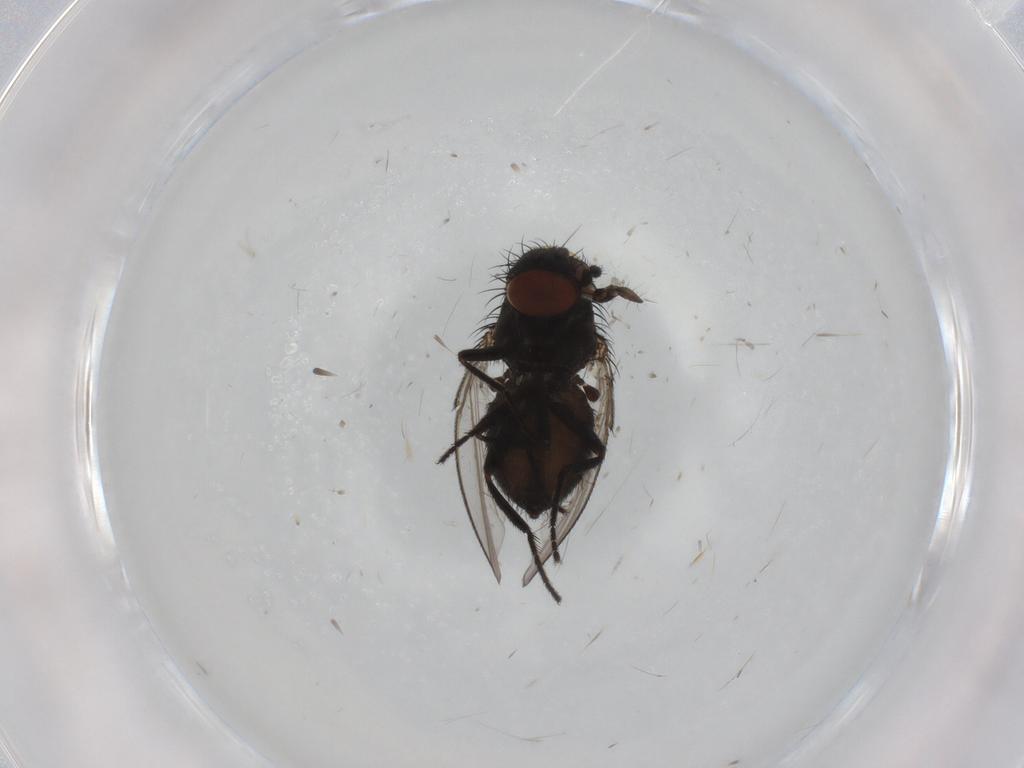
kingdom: Animalia
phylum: Arthropoda
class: Insecta
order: Diptera
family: Milichiidae
